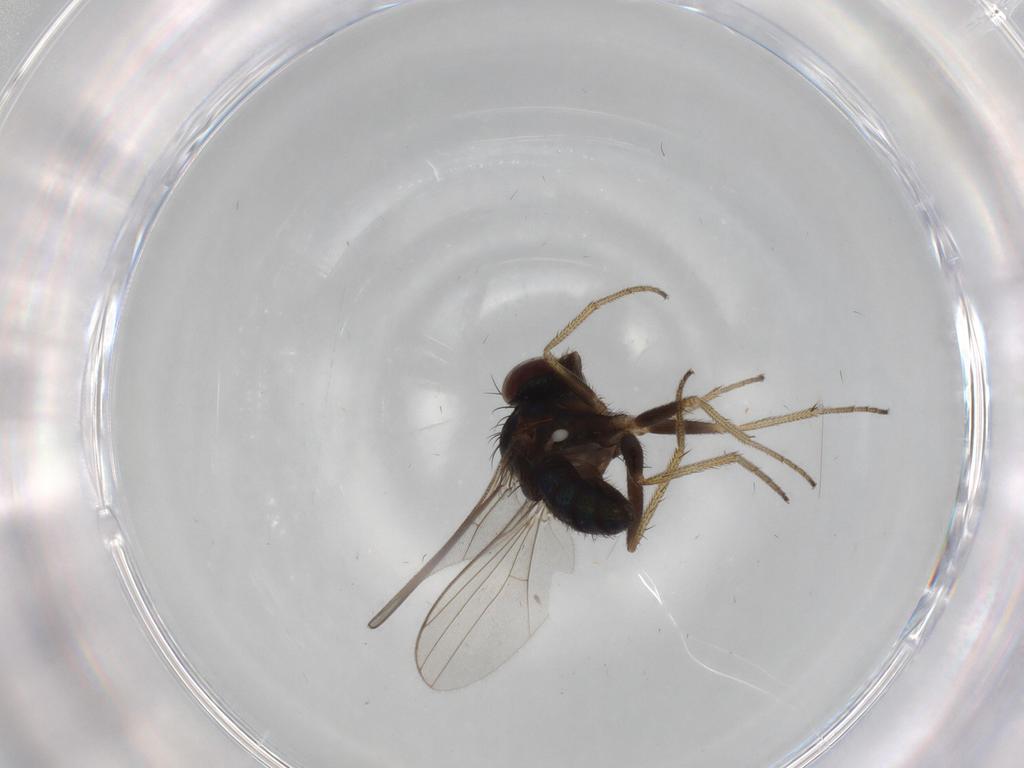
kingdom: Animalia
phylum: Arthropoda
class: Insecta
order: Diptera
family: Dolichopodidae
